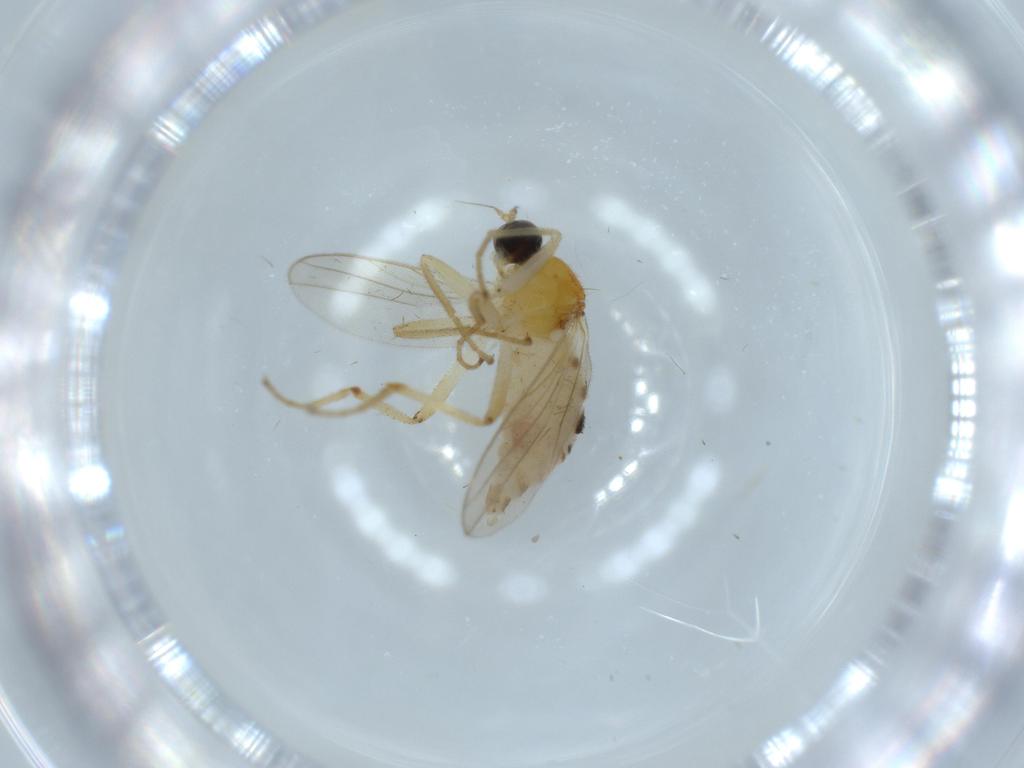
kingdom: Animalia
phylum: Arthropoda
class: Insecta
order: Diptera
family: Hybotidae
